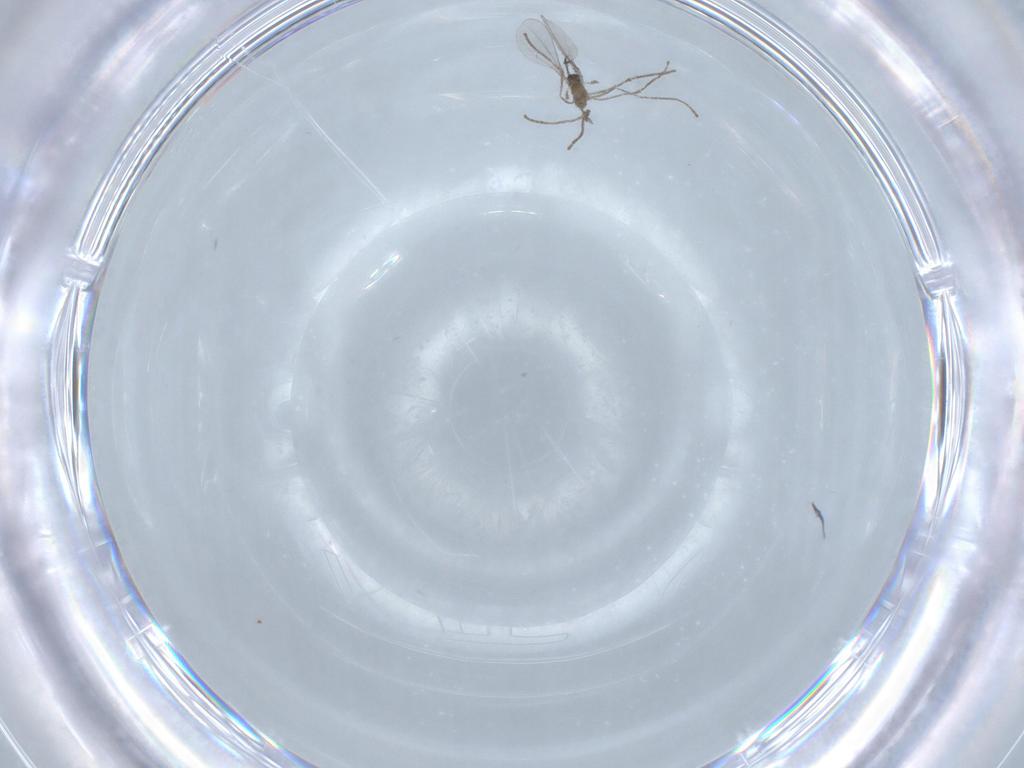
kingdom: Animalia
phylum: Arthropoda
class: Insecta
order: Diptera
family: Cecidomyiidae
